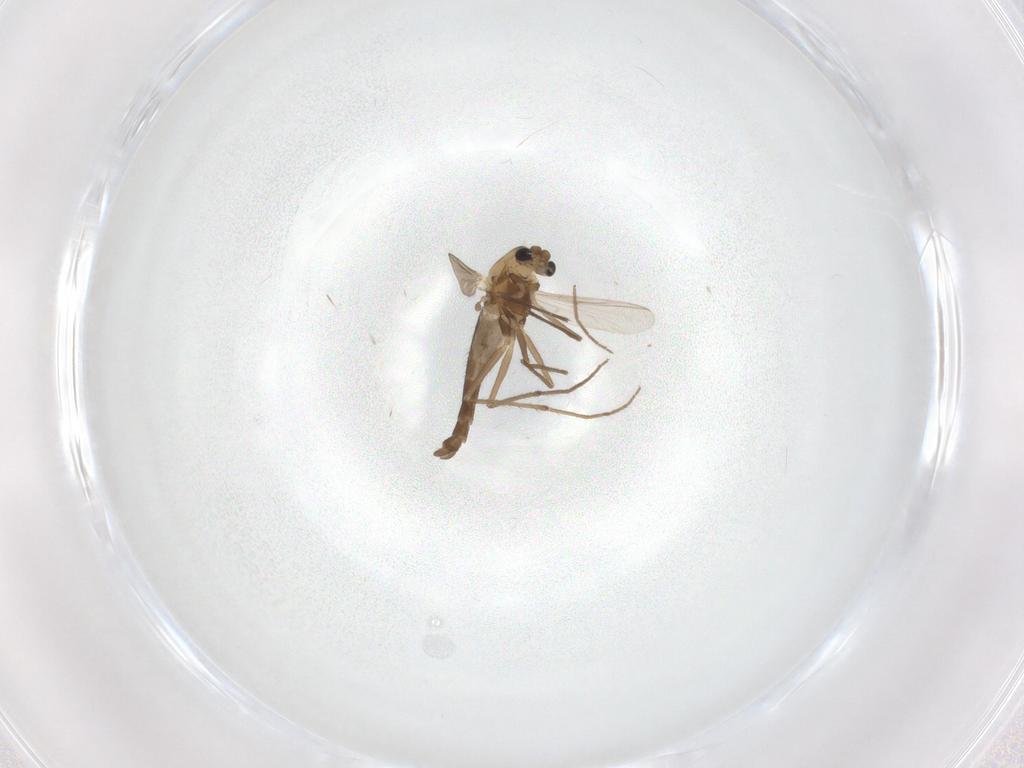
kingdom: Animalia
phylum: Arthropoda
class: Insecta
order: Diptera
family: Chironomidae
